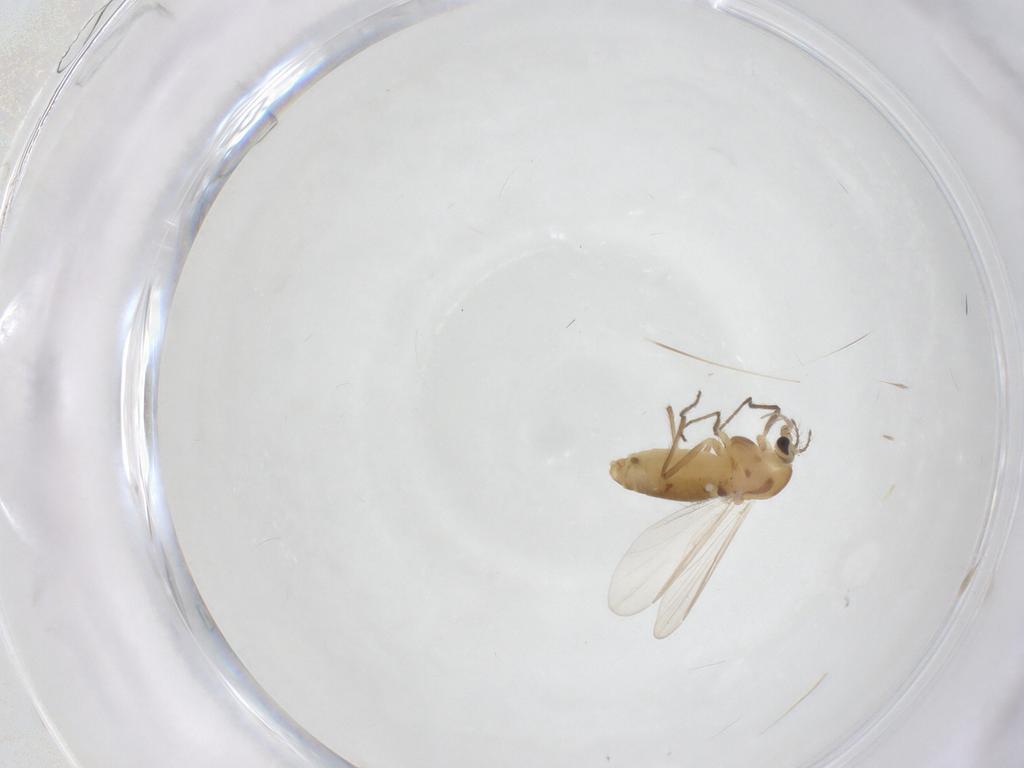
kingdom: Animalia
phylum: Arthropoda
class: Insecta
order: Diptera
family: Chironomidae
